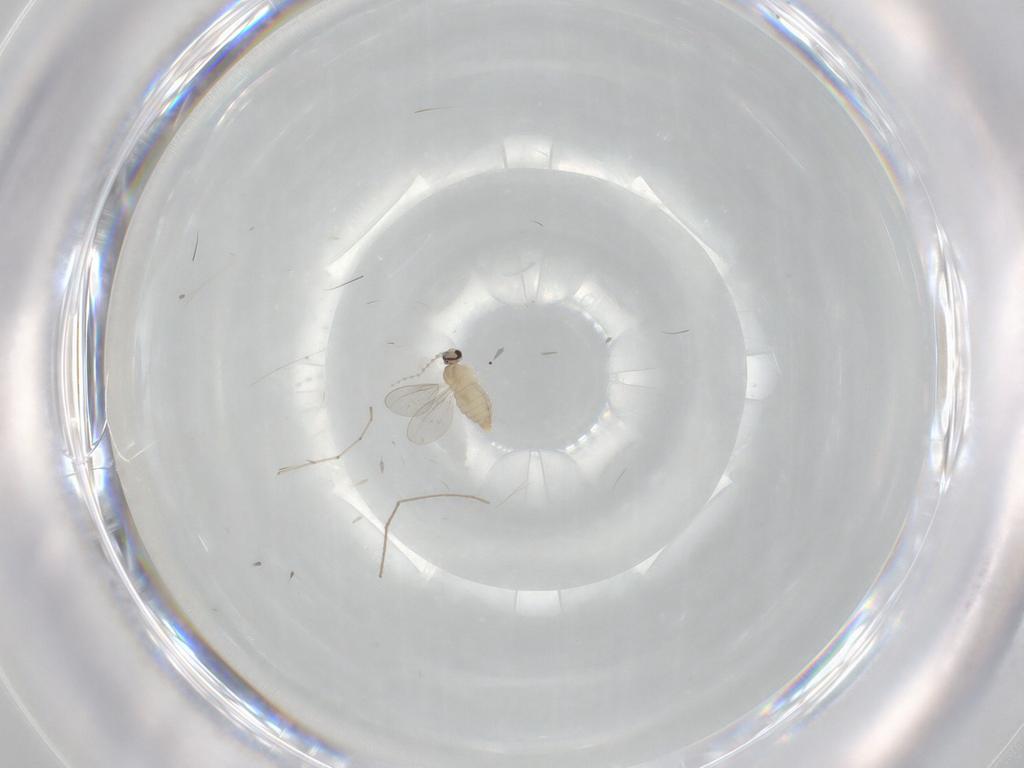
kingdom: Animalia
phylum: Arthropoda
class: Insecta
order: Diptera
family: Cecidomyiidae
